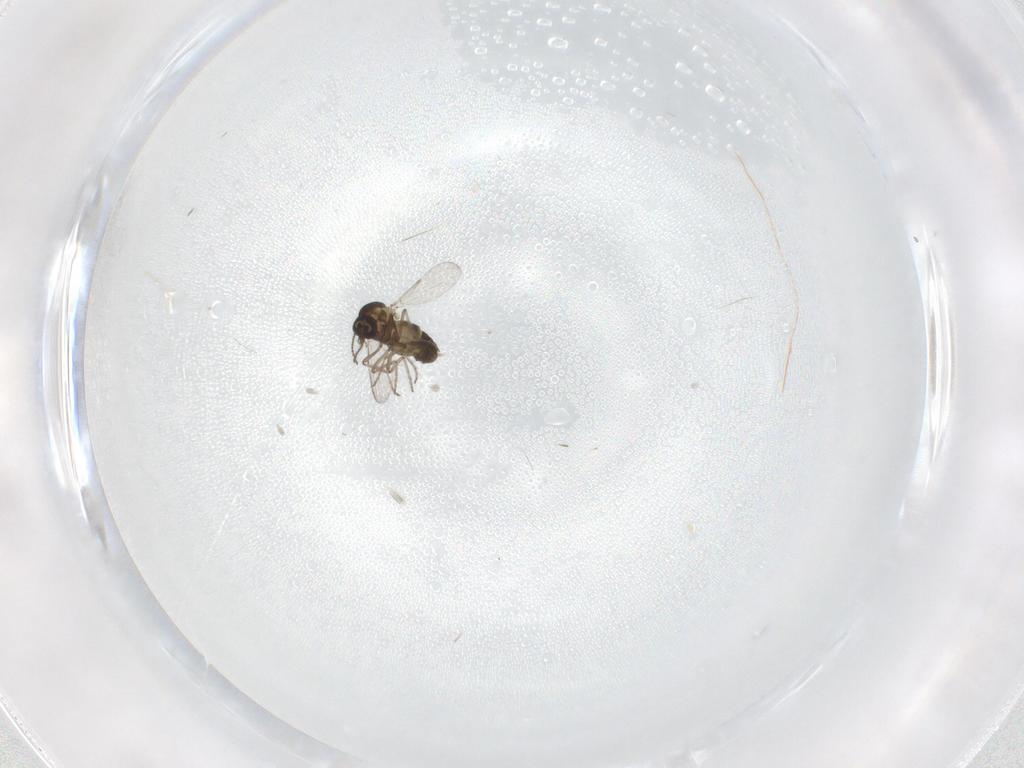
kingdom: Animalia
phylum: Arthropoda
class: Insecta
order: Diptera
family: Ceratopogonidae
